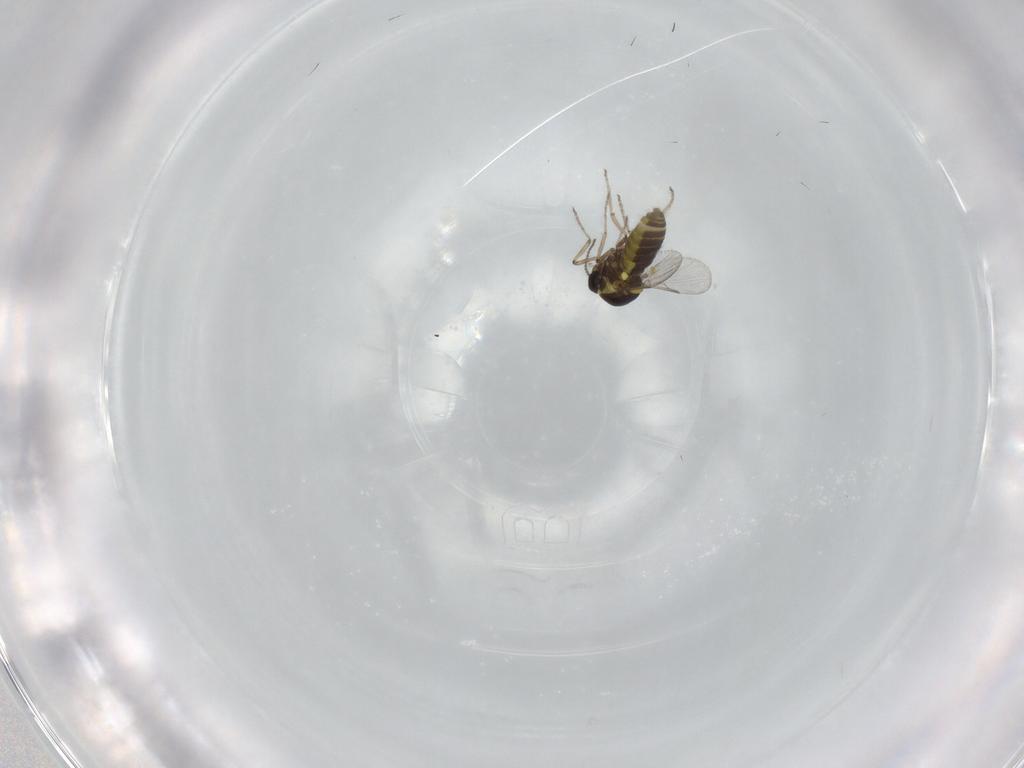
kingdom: Animalia
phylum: Arthropoda
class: Insecta
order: Diptera
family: Ceratopogonidae
